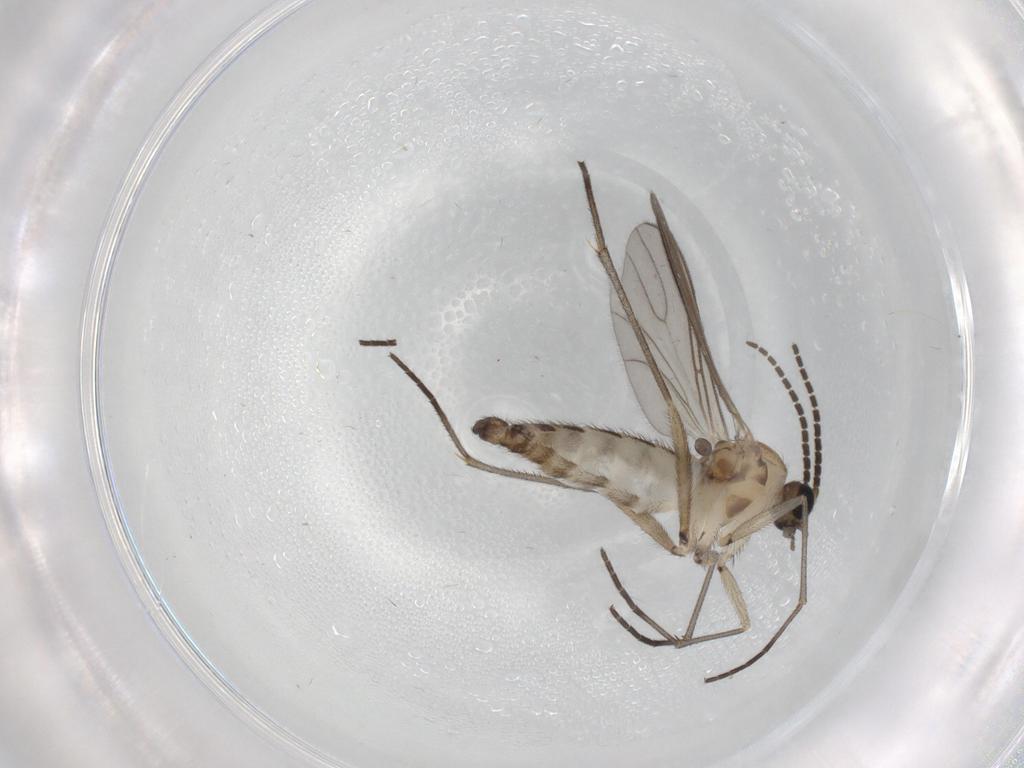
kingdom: Animalia
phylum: Arthropoda
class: Insecta
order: Diptera
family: Sciaridae
